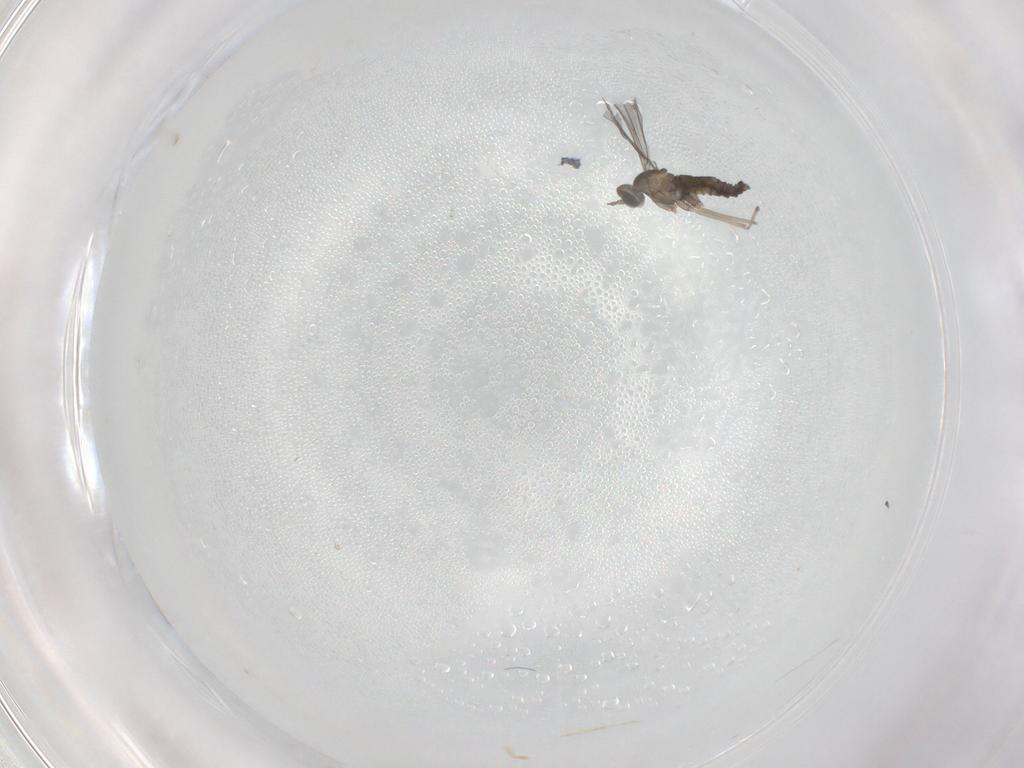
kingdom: Animalia
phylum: Arthropoda
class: Insecta
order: Diptera
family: Cecidomyiidae
